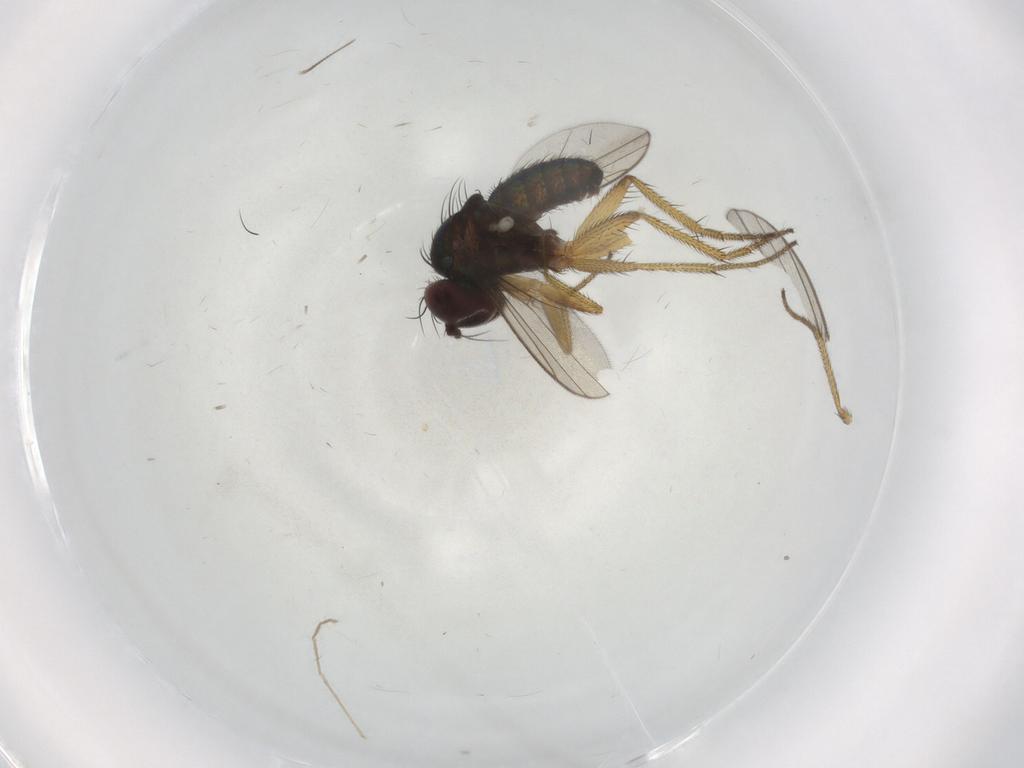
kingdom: Animalia
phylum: Arthropoda
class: Insecta
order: Diptera
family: Dolichopodidae
